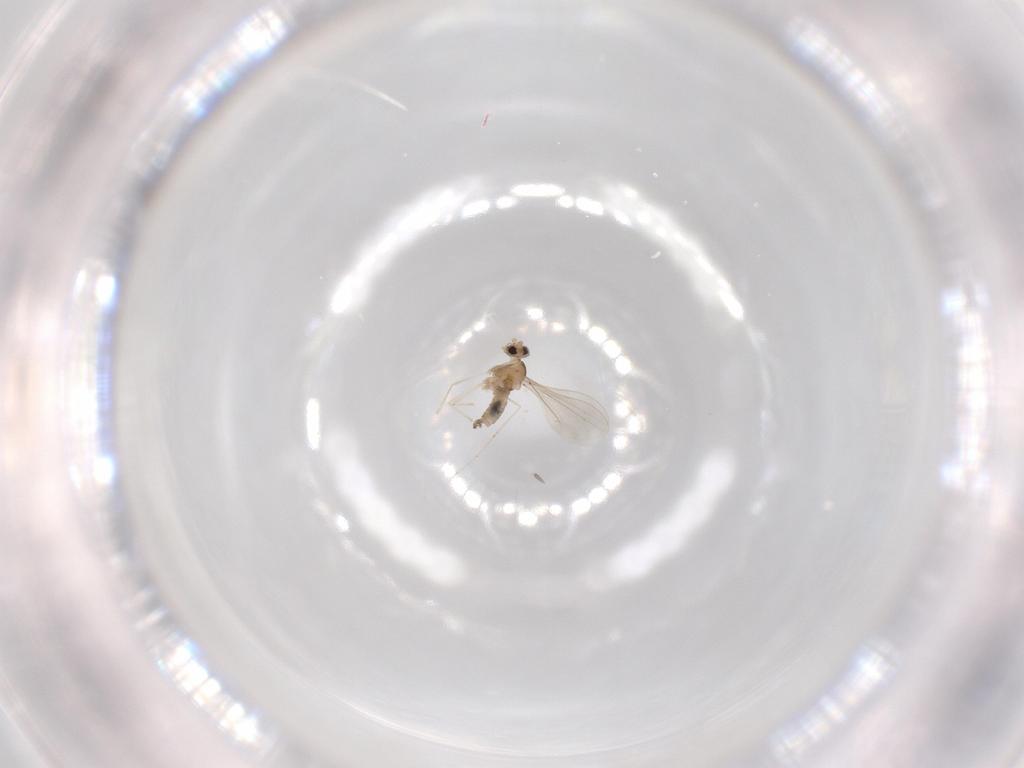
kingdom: Animalia
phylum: Arthropoda
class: Insecta
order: Diptera
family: Cecidomyiidae
